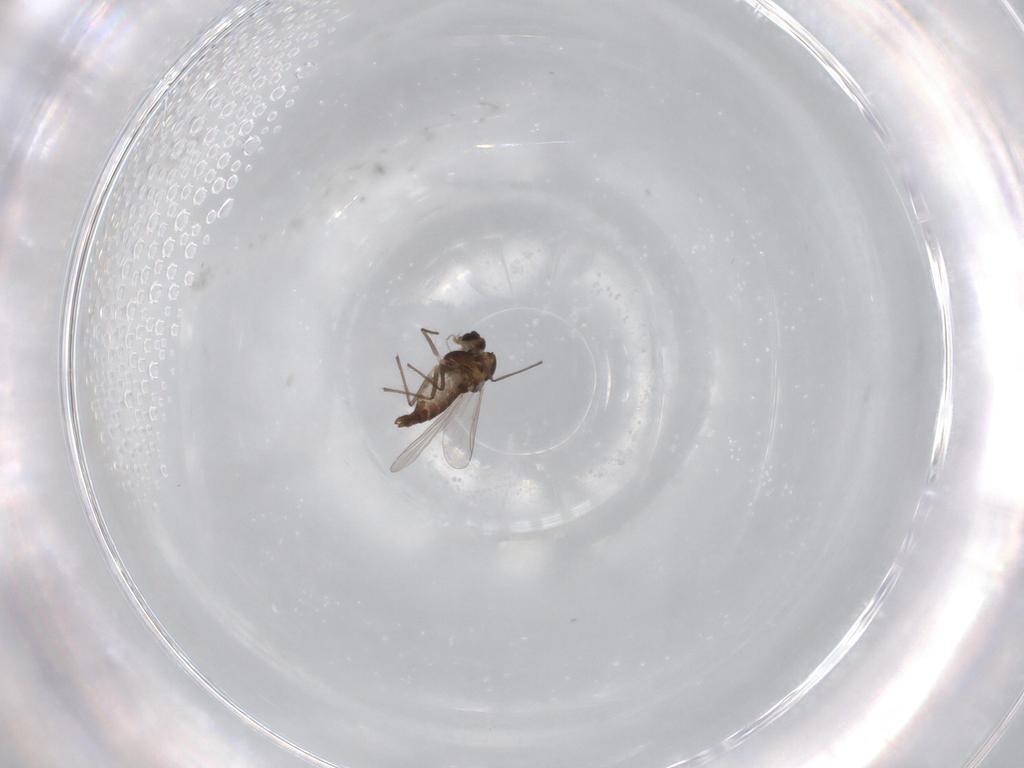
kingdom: Animalia
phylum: Arthropoda
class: Insecta
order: Diptera
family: Chironomidae
